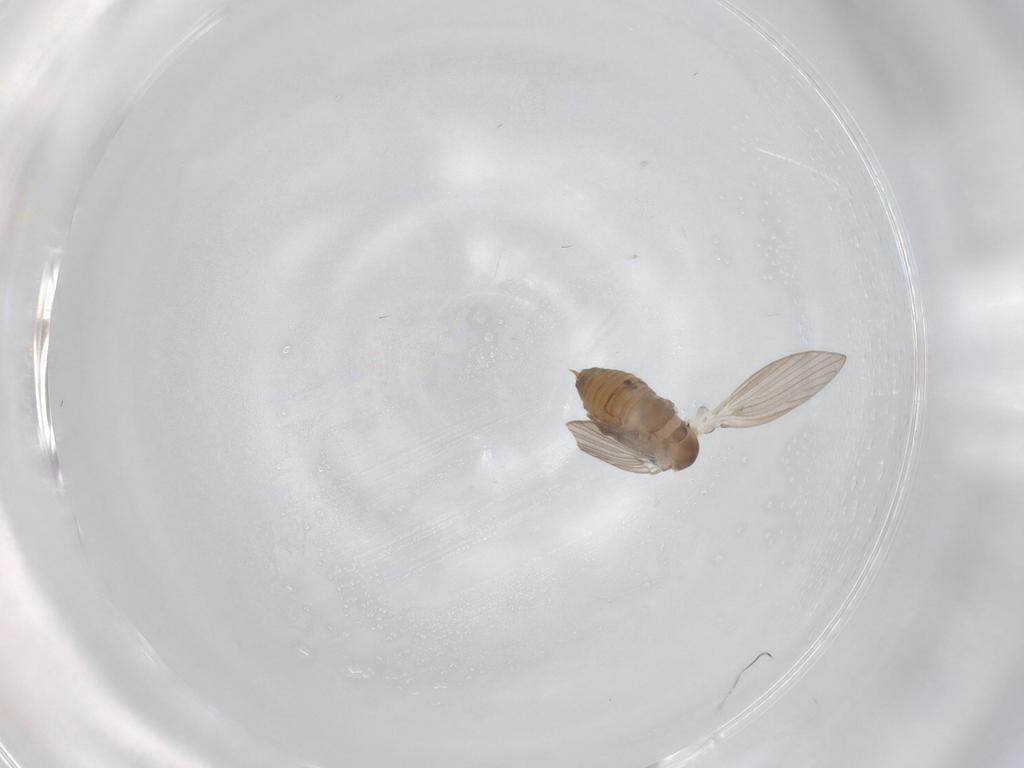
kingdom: Animalia
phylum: Arthropoda
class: Insecta
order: Diptera
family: Psychodidae
